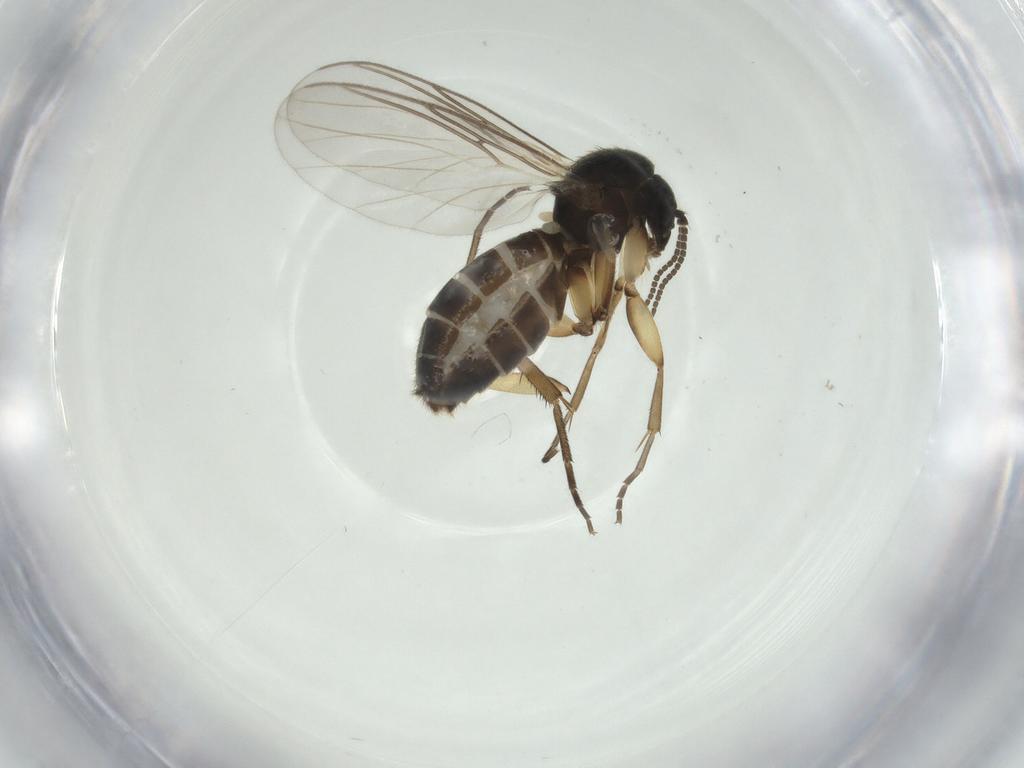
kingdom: Animalia
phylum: Arthropoda
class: Insecta
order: Diptera
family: Mycetophilidae
